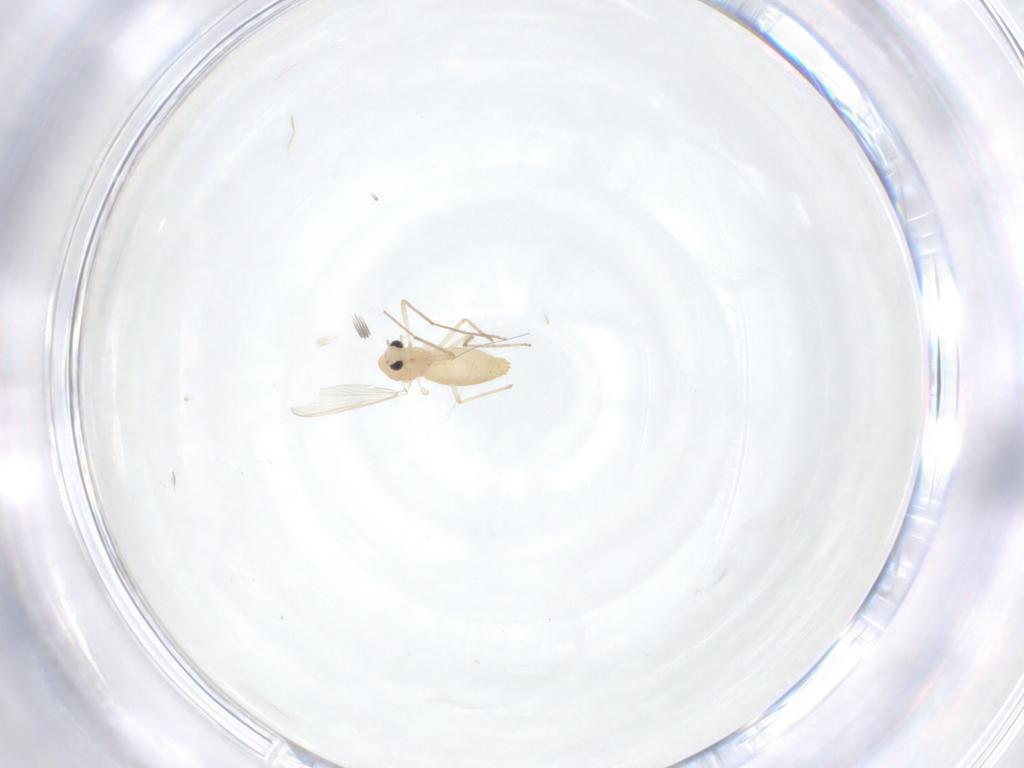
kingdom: Animalia
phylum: Arthropoda
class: Insecta
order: Diptera
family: Chironomidae
